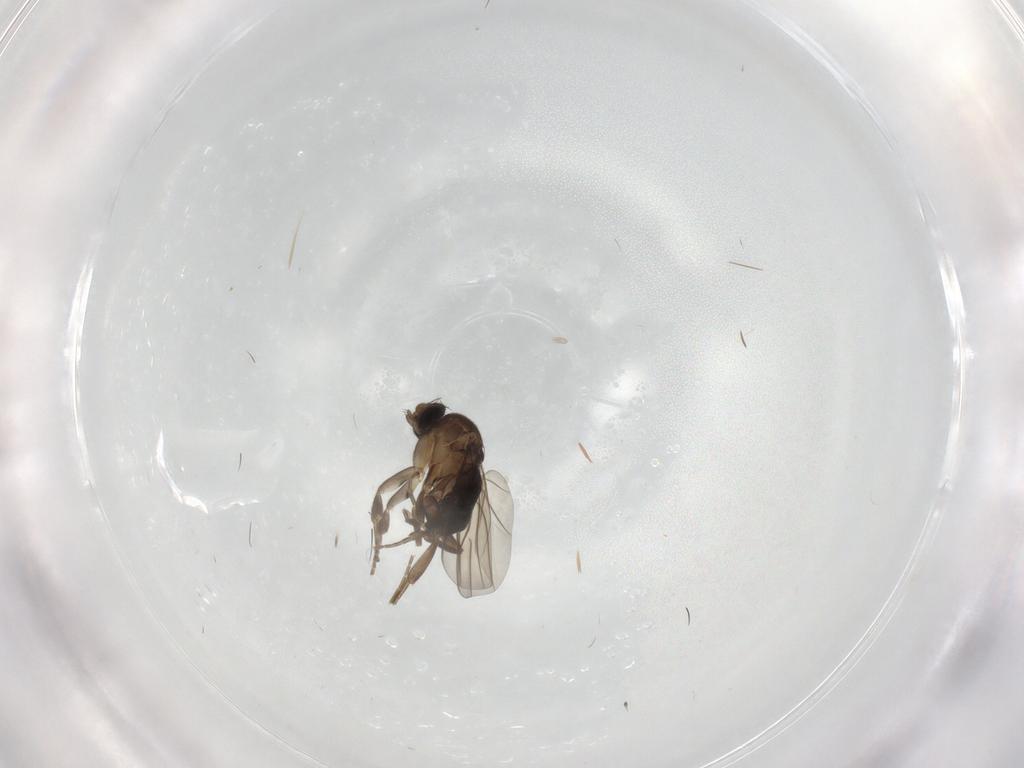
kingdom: Animalia
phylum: Arthropoda
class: Insecta
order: Diptera
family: Phoridae
